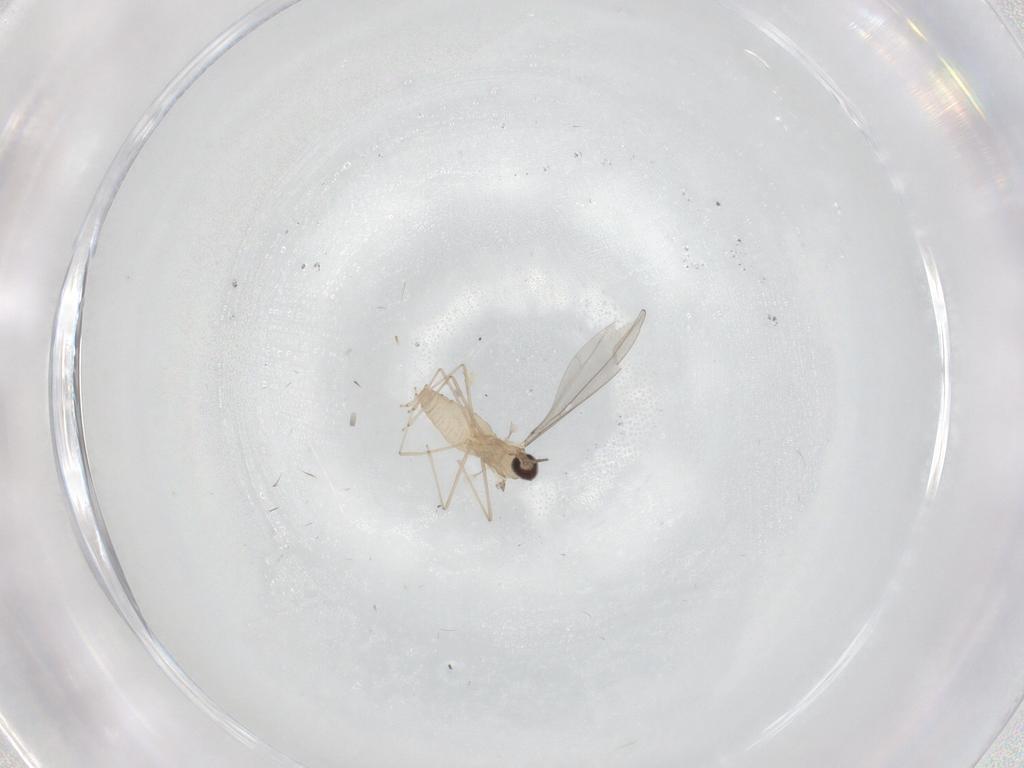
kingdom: Animalia
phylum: Arthropoda
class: Insecta
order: Diptera
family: Cecidomyiidae
